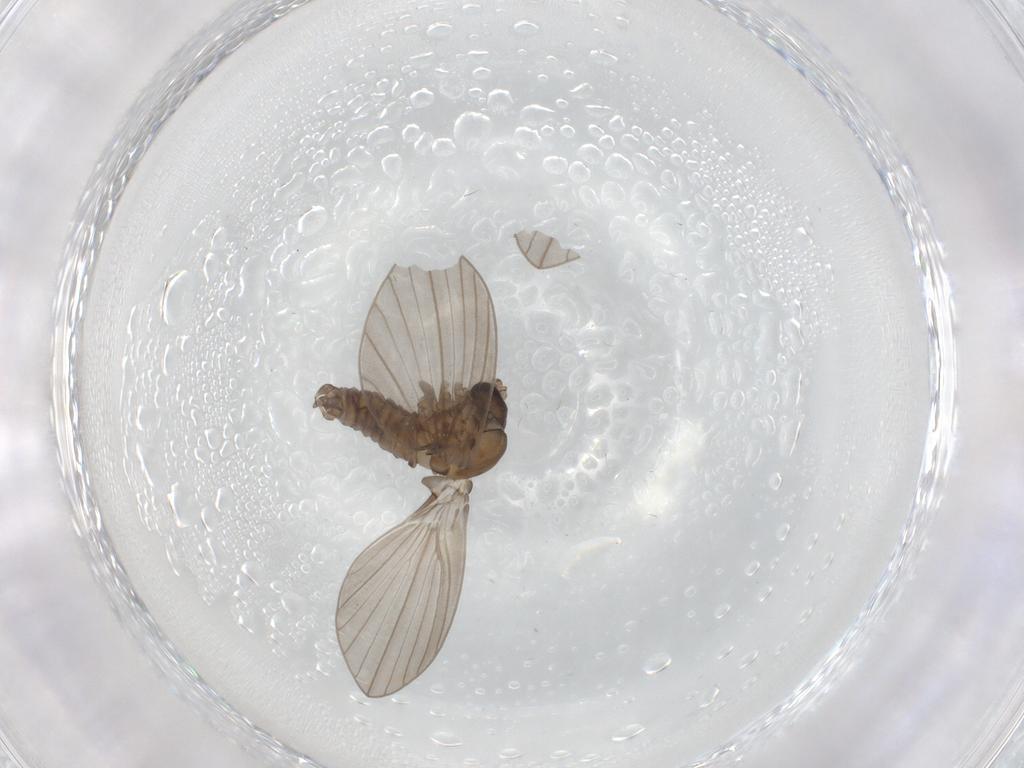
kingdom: Animalia
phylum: Arthropoda
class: Insecta
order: Diptera
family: Psychodidae
